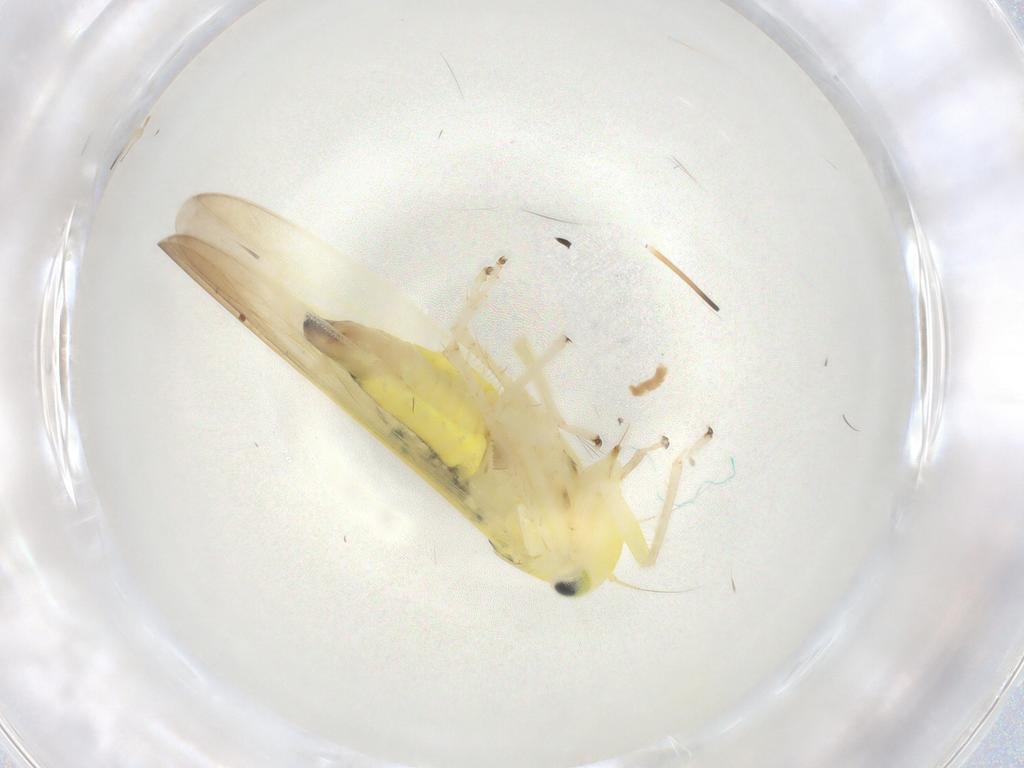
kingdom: Animalia
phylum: Arthropoda
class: Insecta
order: Hemiptera
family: Cicadellidae
